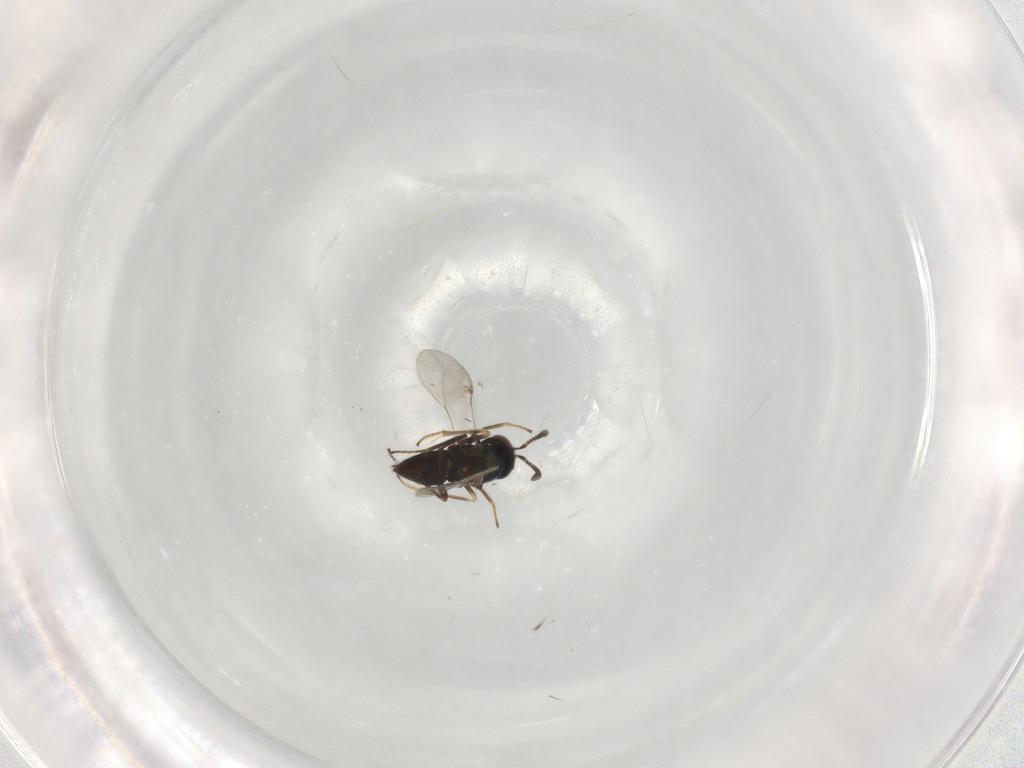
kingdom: Animalia
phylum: Arthropoda
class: Insecta
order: Hymenoptera
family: Encyrtidae
